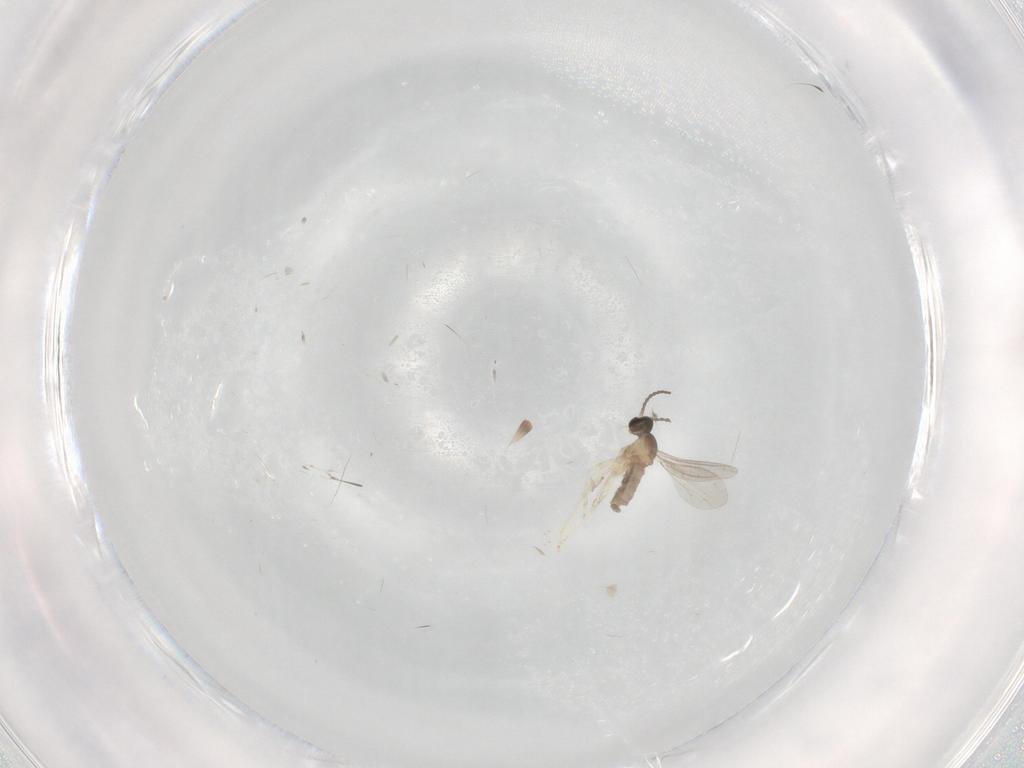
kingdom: Animalia
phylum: Arthropoda
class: Insecta
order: Diptera
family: Cecidomyiidae
